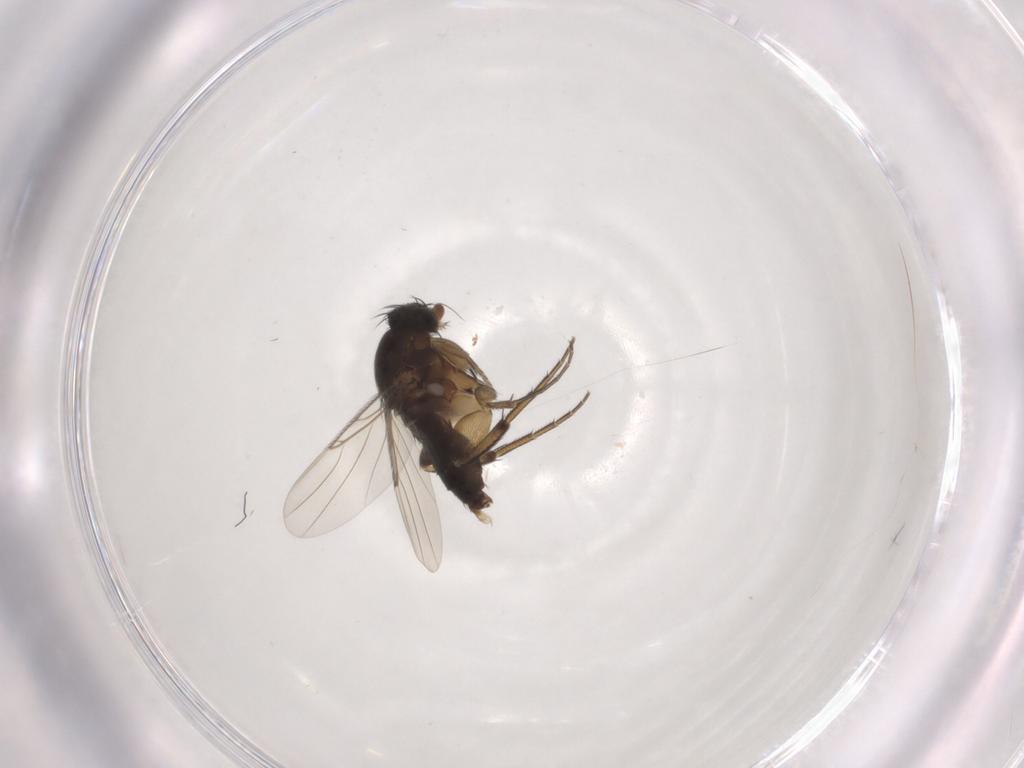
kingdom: Animalia
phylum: Arthropoda
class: Insecta
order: Diptera
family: Phoridae
